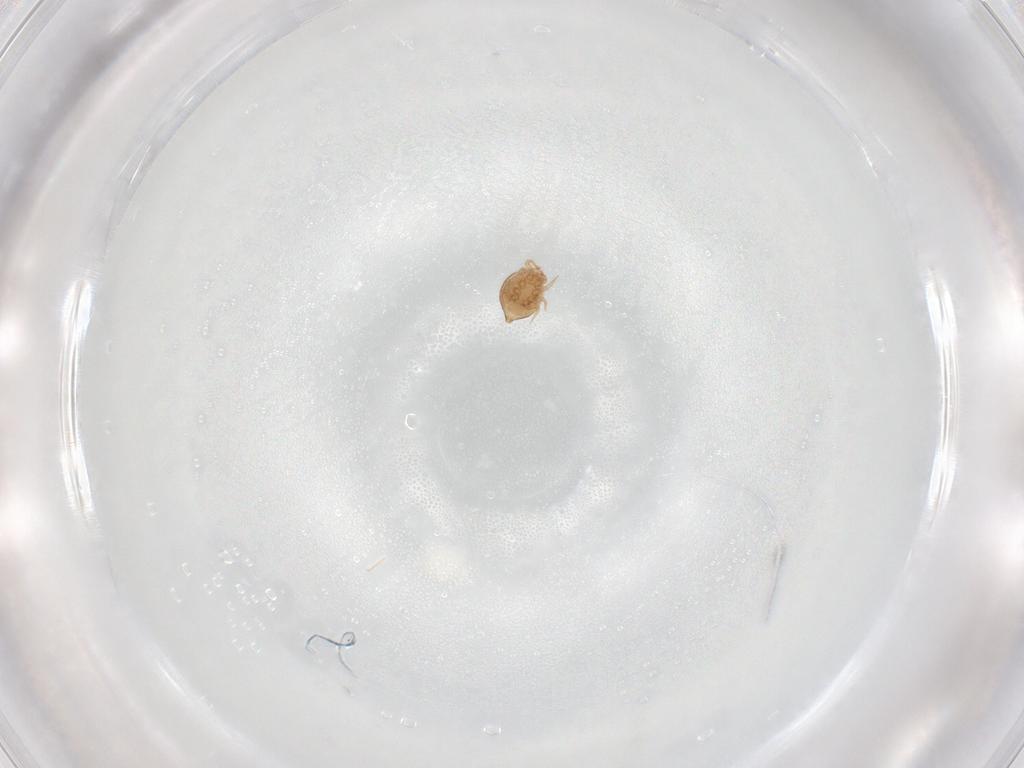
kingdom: Animalia
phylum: Arthropoda
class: Arachnida
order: Mesostigmata
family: Polyaspididae
